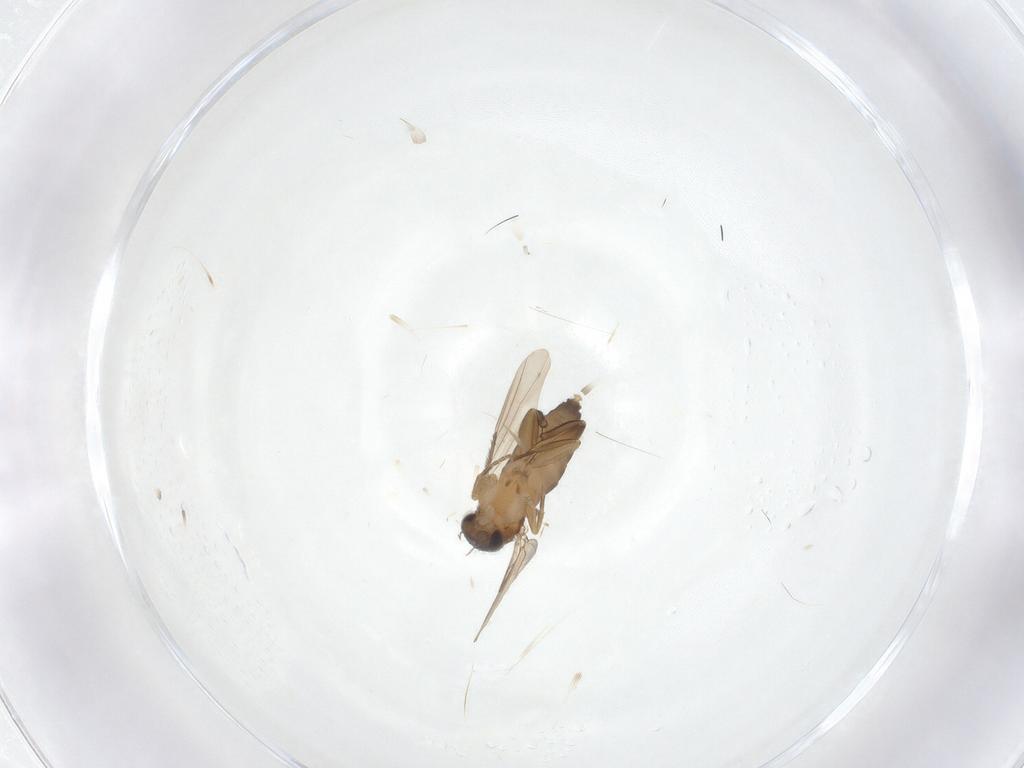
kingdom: Animalia
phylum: Arthropoda
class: Insecta
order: Diptera
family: Phoridae
